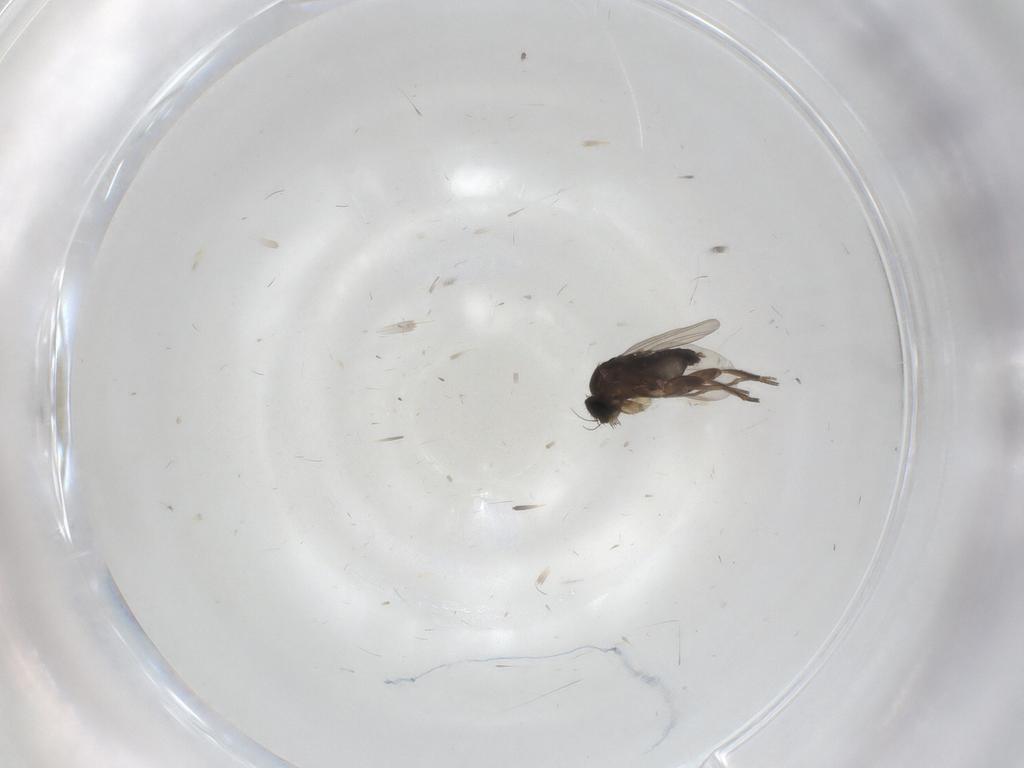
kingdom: Animalia
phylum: Arthropoda
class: Insecta
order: Diptera
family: Phoridae
